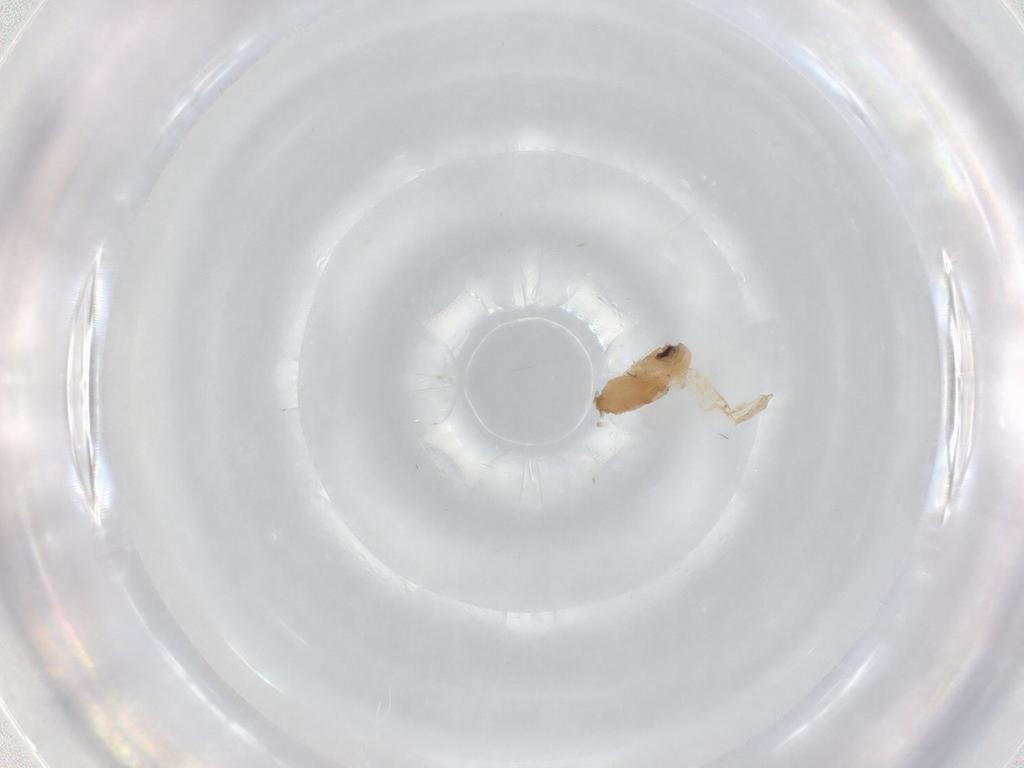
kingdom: Animalia
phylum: Arthropoda
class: Insecta
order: Diptera
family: Psychodidae
